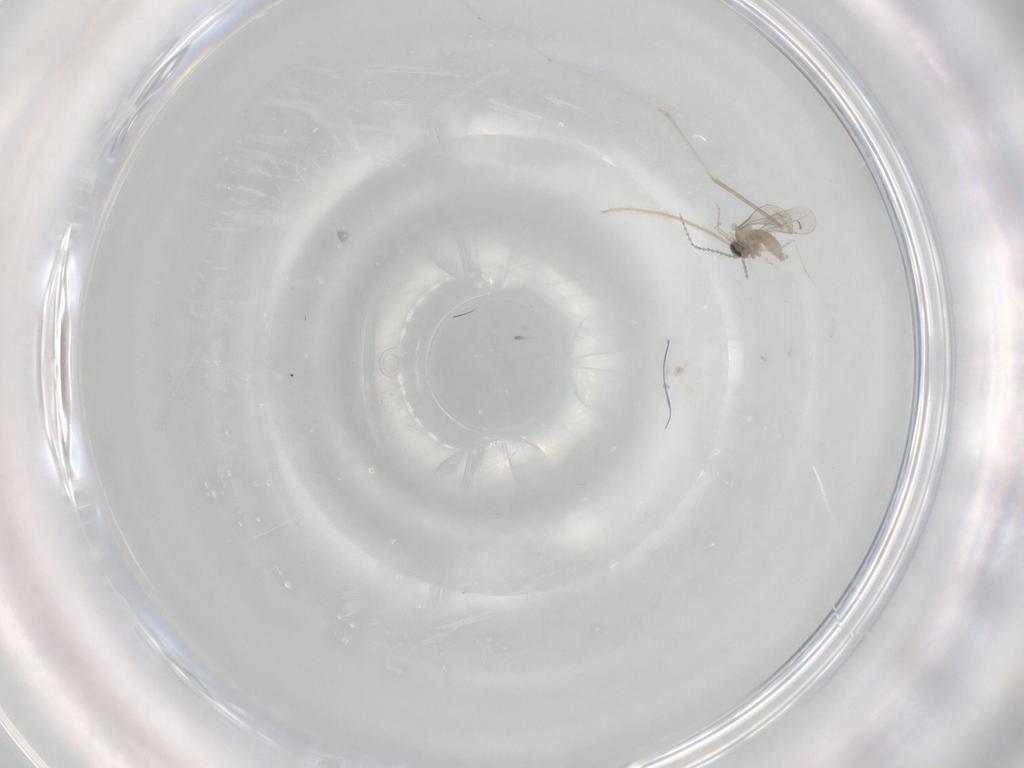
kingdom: Animalia
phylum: Arthropoda
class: Insecta
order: Diptera
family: Cecidomyiidae
